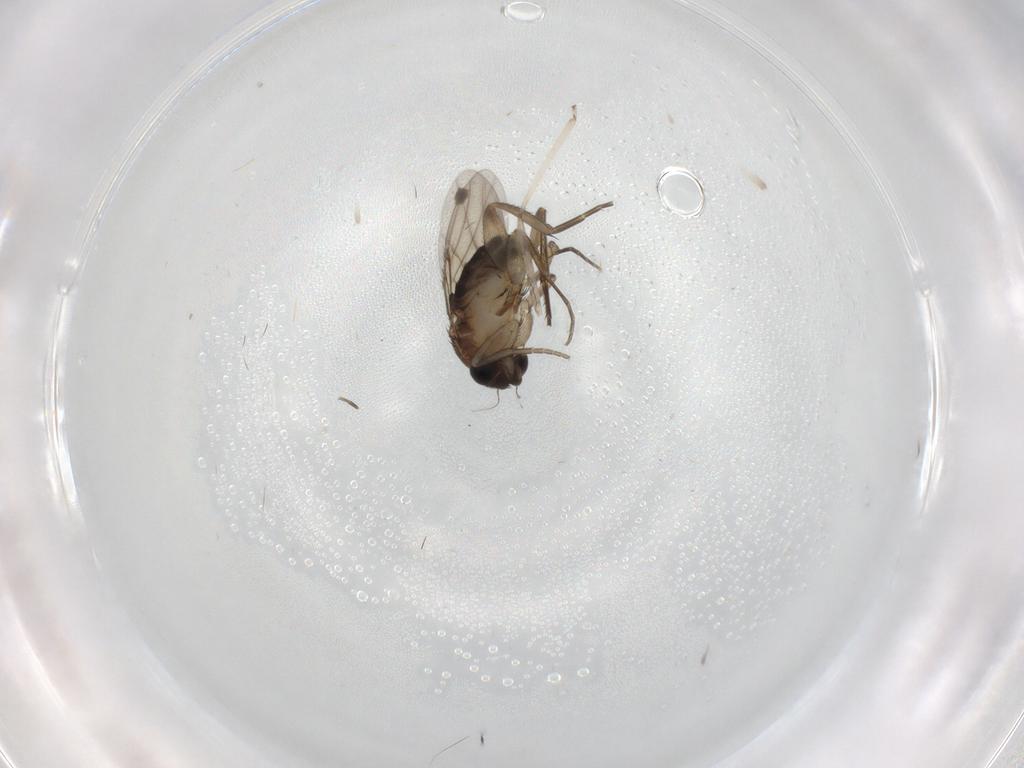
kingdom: Animalia
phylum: Arthropoda
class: Insecta
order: Diptera
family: Phoridae
